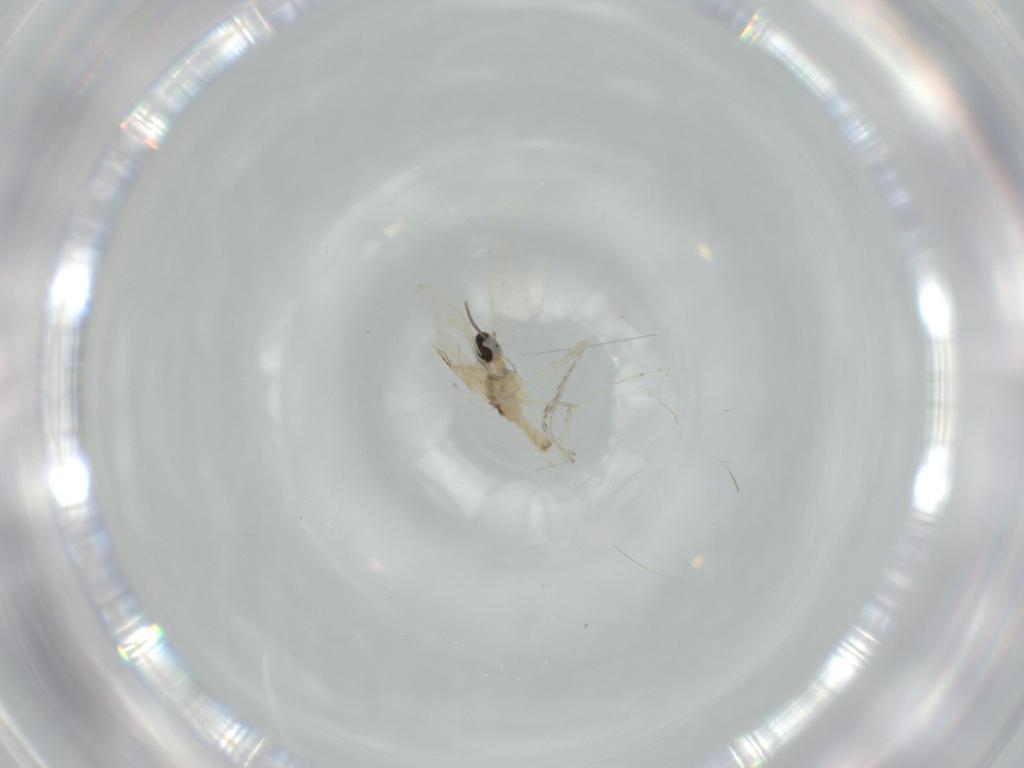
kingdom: Animalia
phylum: Arthropoda
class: Insecta
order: Diptera
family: Cecidomyiidae
